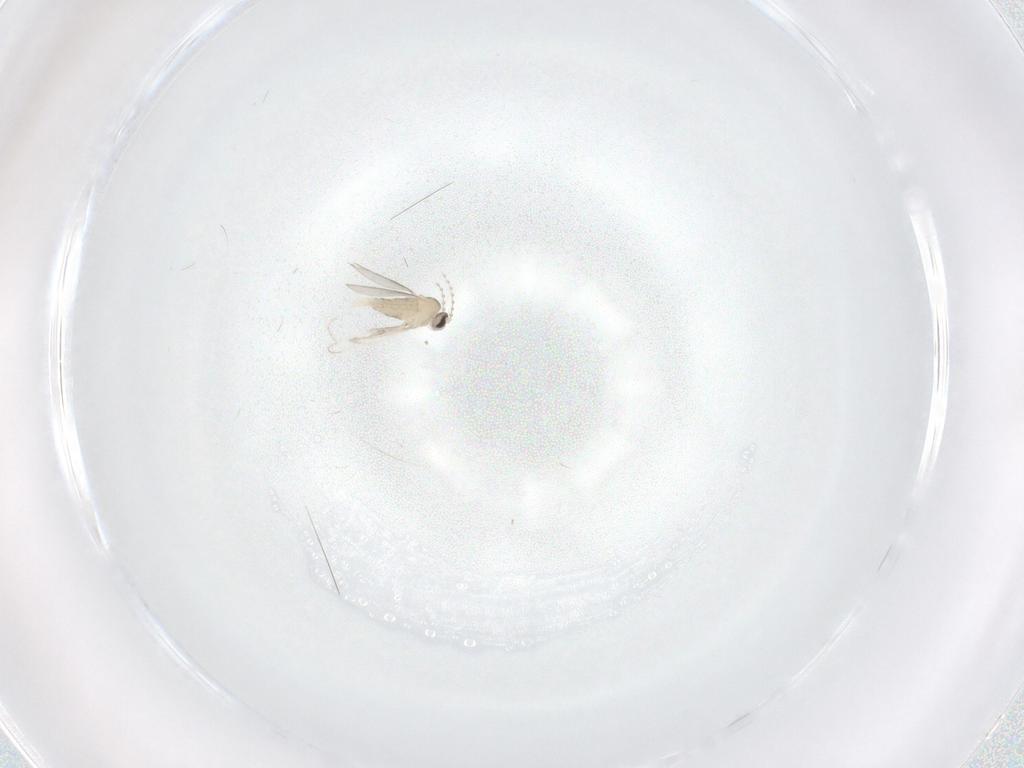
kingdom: Animalia
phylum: Arthropoda
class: Insecta
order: Diptera
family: Chironomidae
